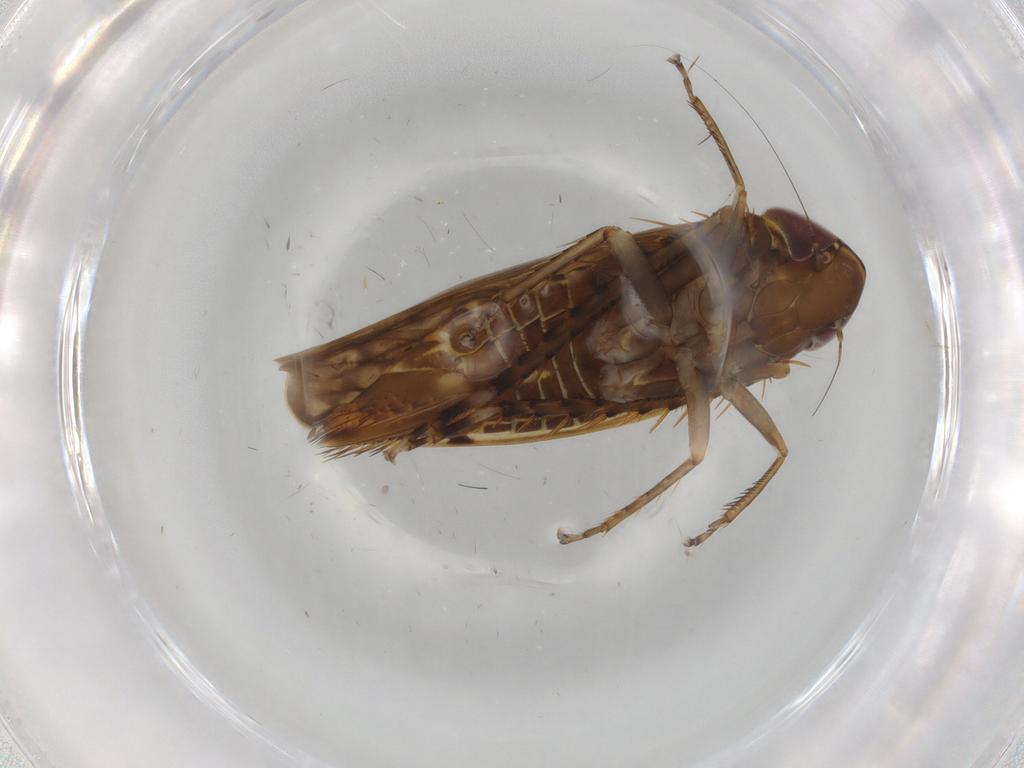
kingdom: Animalia
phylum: Arthropoda
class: Insecta
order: Hemiptera
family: Cicadellidae
